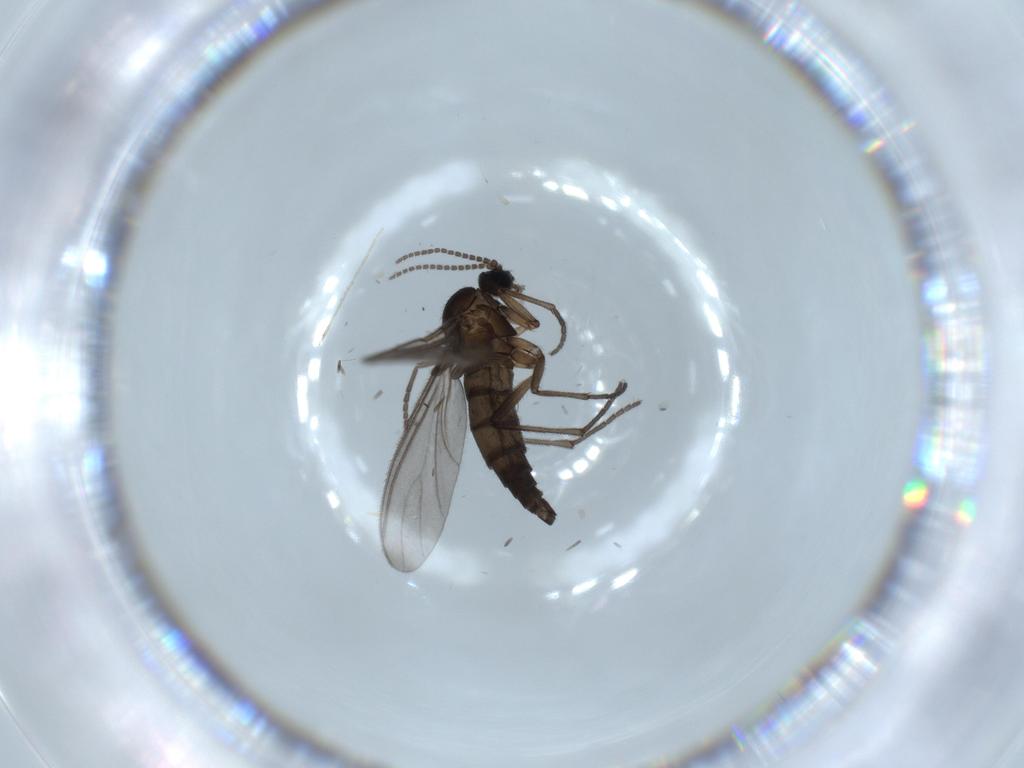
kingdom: Animalia
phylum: Arthropoda
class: Insecta
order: Diptera
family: Sciaridae
